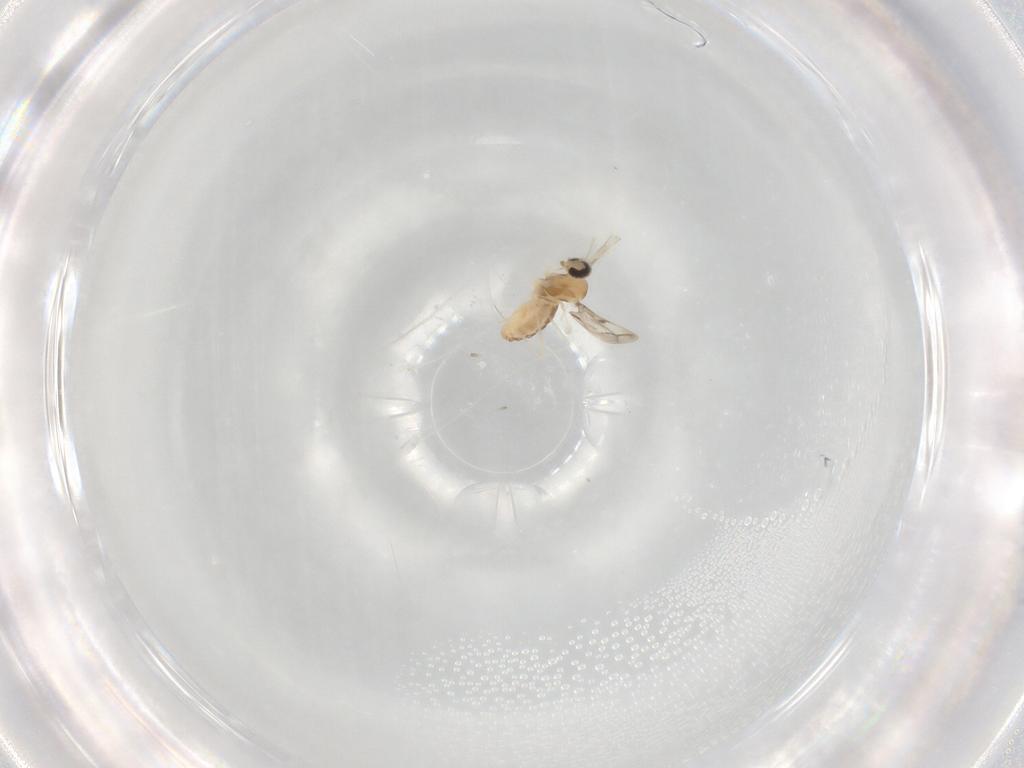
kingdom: Animalia
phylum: Arthropoda
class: Insecta
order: Diptera
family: Cecidomyiidae
